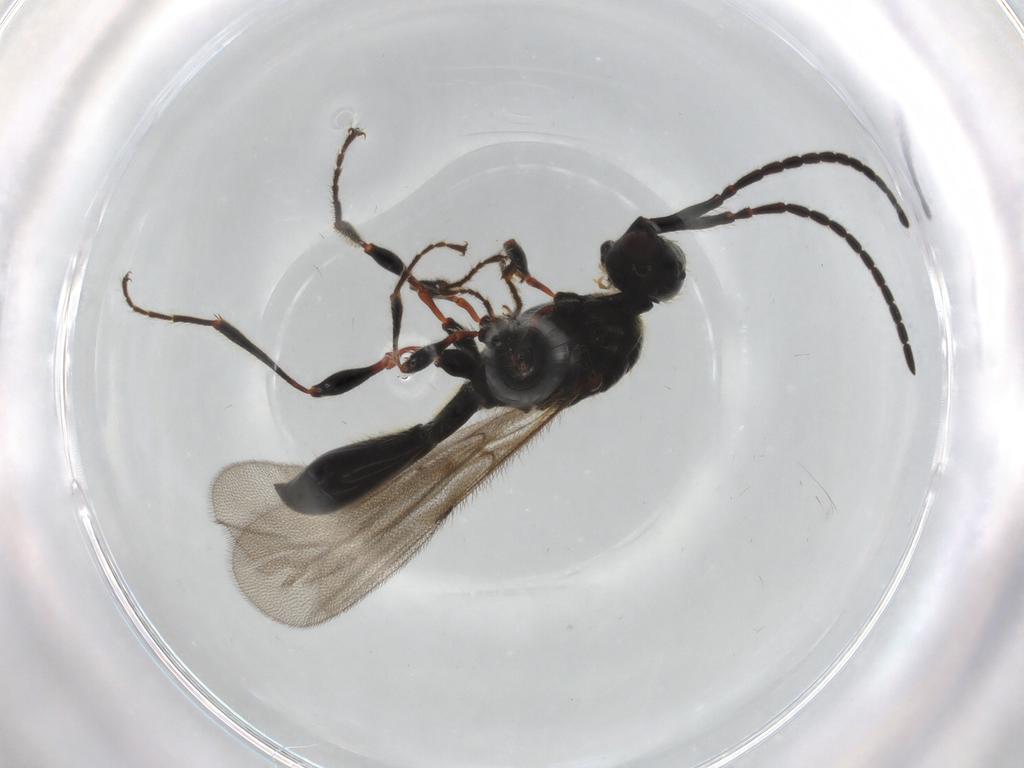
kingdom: Animalia
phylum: Arthropoda
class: Insecta
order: Hymenoptera
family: Diapriidae
